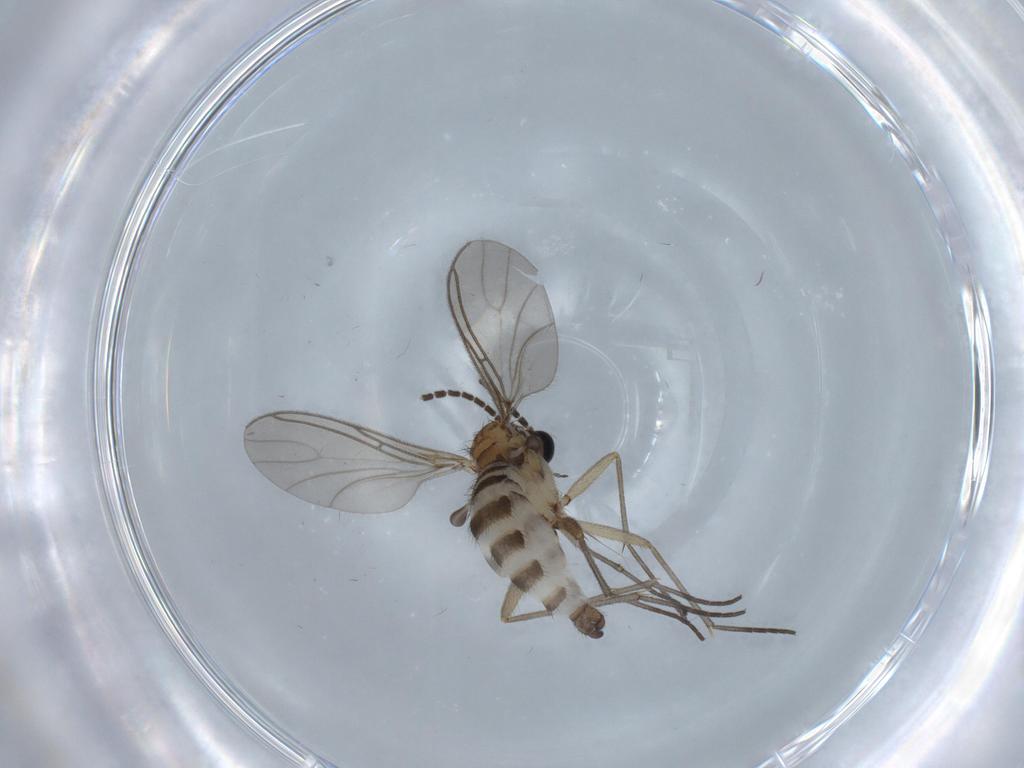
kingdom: Animalia
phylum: Arthropoda
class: Insecta
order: Diptera
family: Sciaridae
